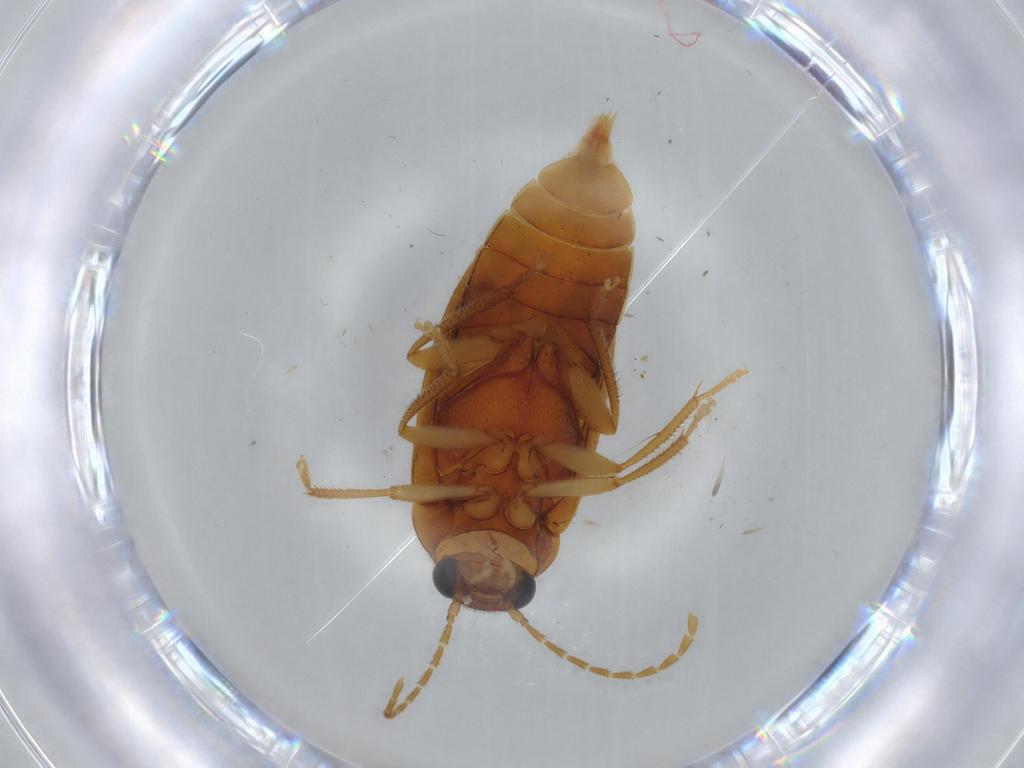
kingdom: Animalia
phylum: Arthropoda
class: Insecta
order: Coleoptera
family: Ptilodactylidae
